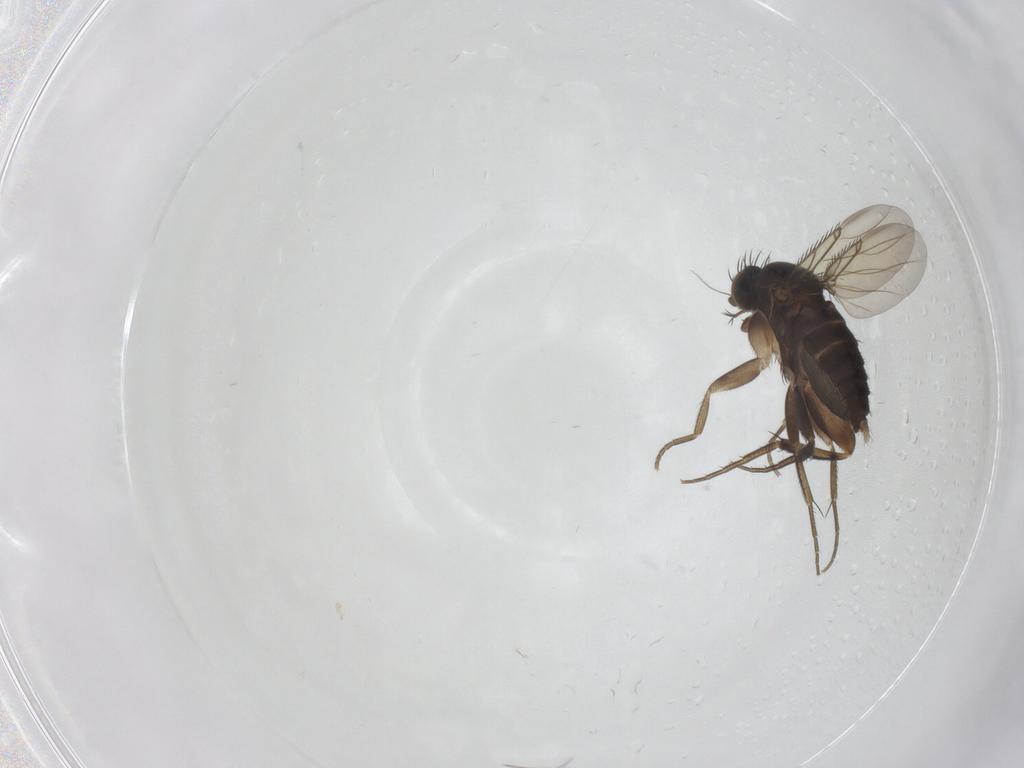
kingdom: Animalia
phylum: Arthropoda
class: Insecta
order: Diptera
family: Phoridae
